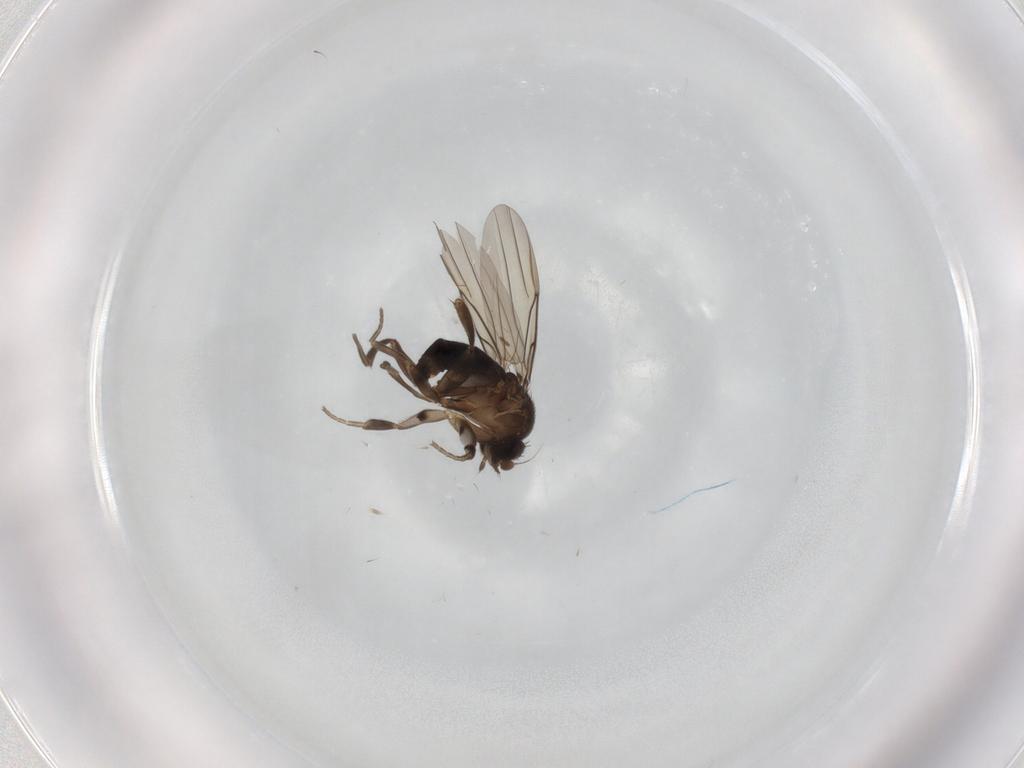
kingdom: Animalia
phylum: Arthropoda
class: Insecta
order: Diptera
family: Phoridae
